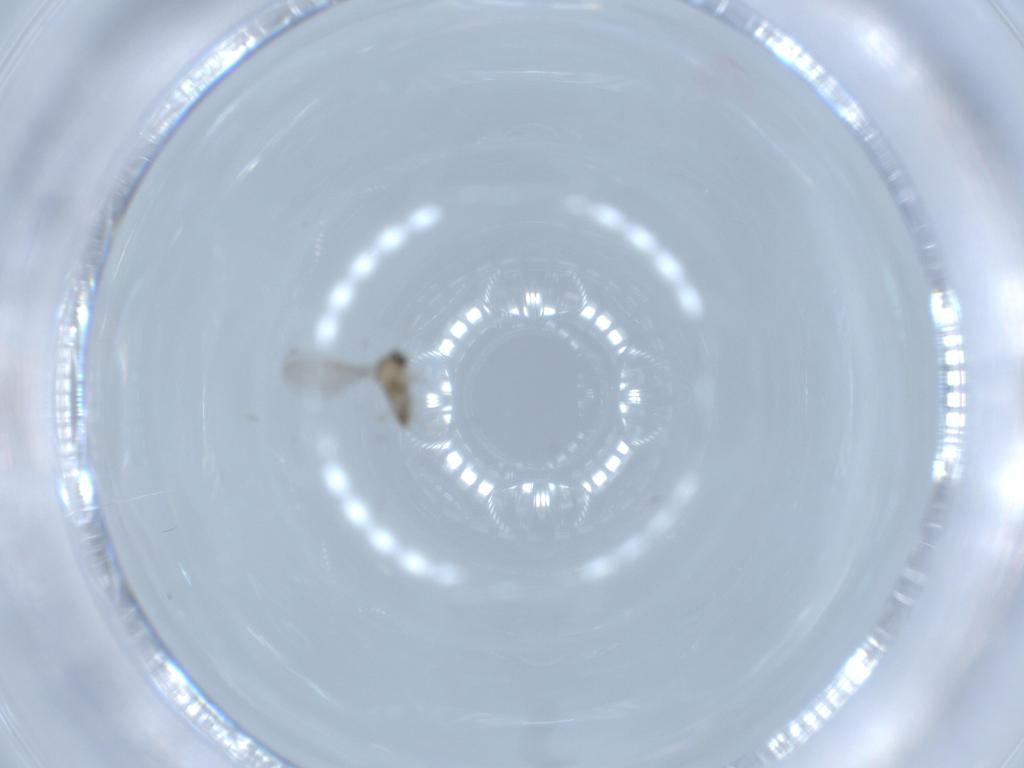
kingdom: Animalia
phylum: Arthropoda
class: Insecta
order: Diptera
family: Cecidomyiidae
